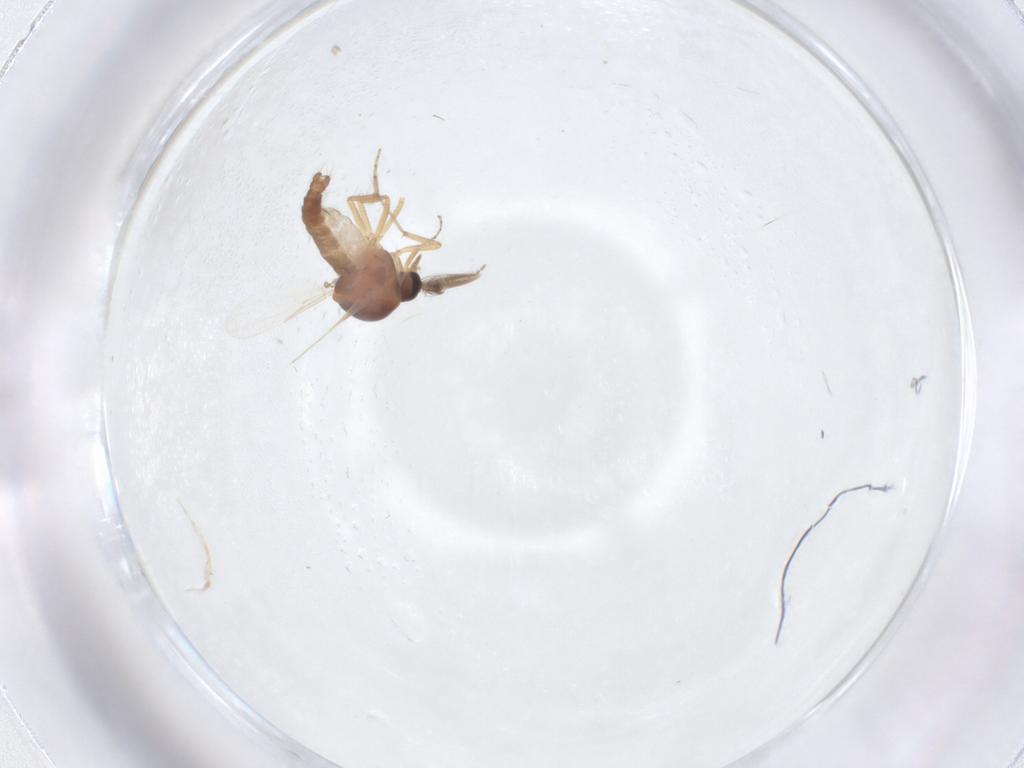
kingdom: Animalia
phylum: Arthropoda
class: Insecta
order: Diptera
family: Ceratopogonidae
